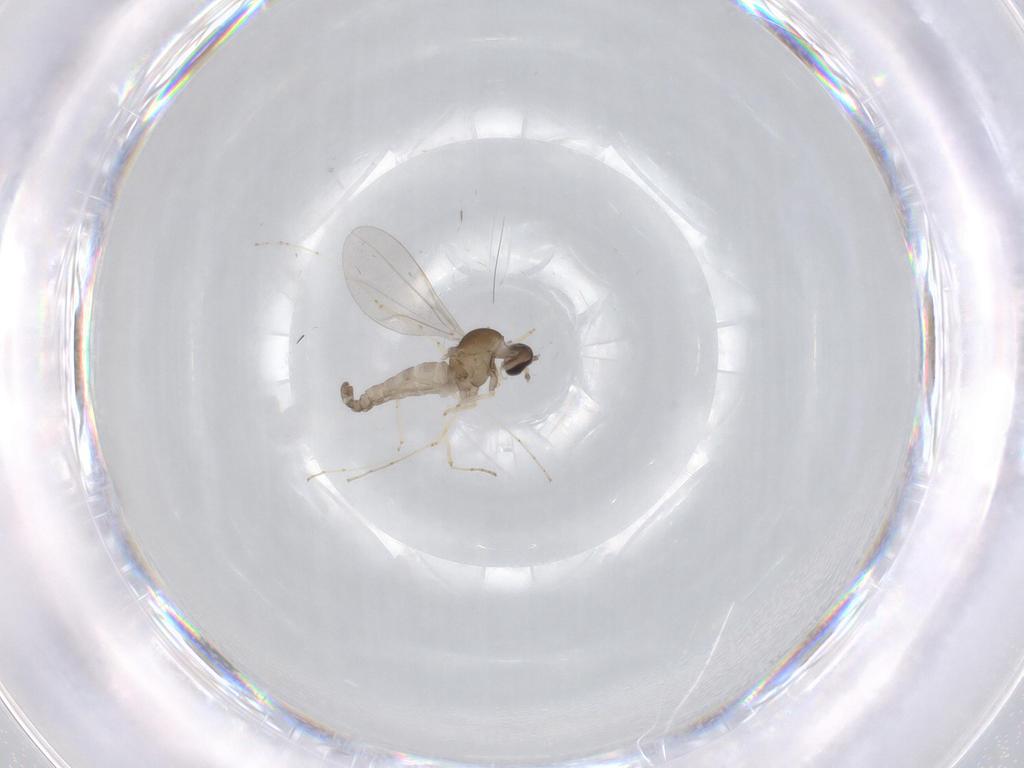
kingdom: Animalia
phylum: Arthropoda
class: Insecta
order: Diptera
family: Cecidomyiidae
